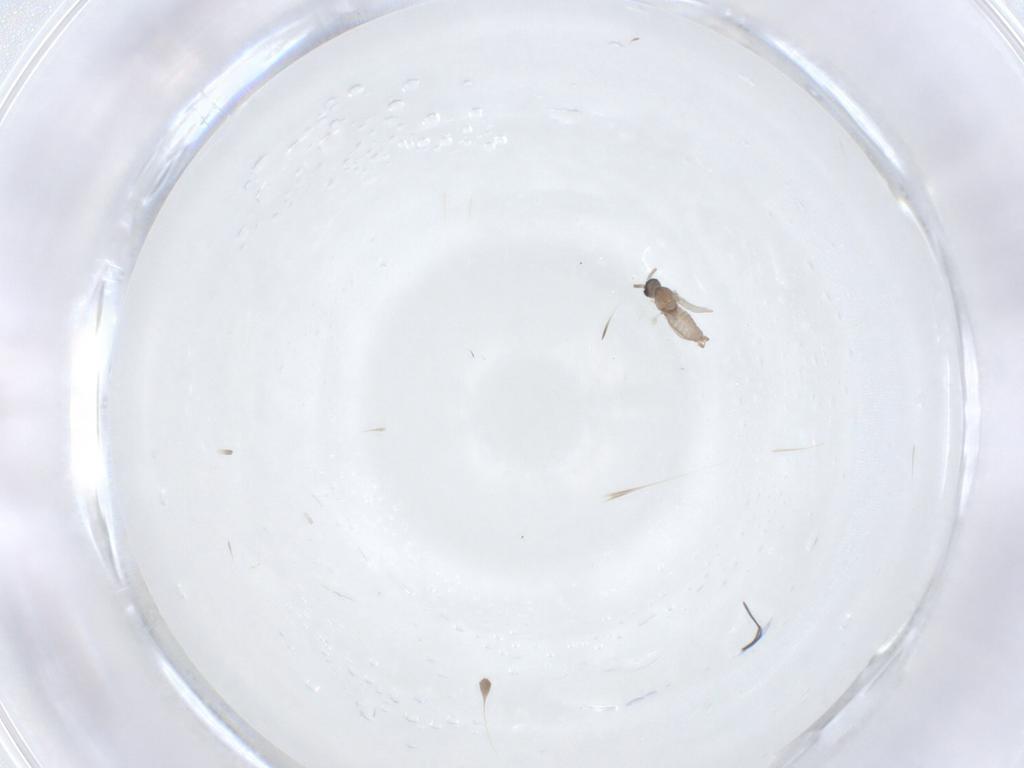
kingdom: Animalia
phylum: Arthropoda
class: Insecta
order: Diptera
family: Cecidomyiidae
